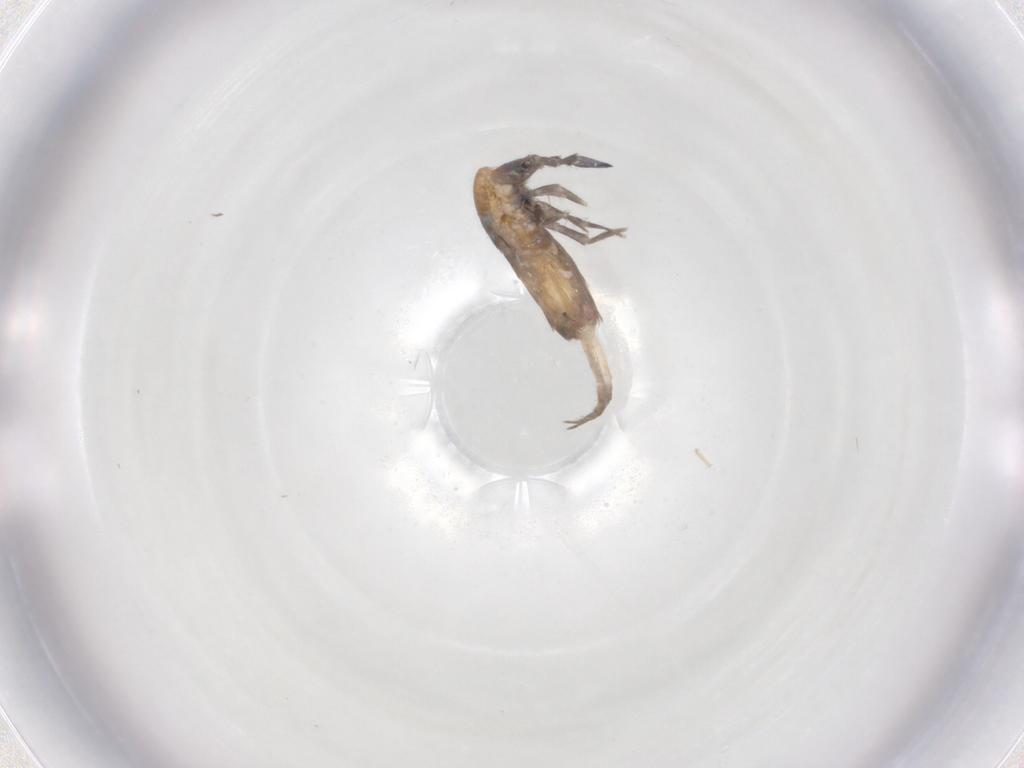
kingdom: Animalia
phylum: Arthropoda
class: Insecta
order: Mantodea
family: Mantidae
